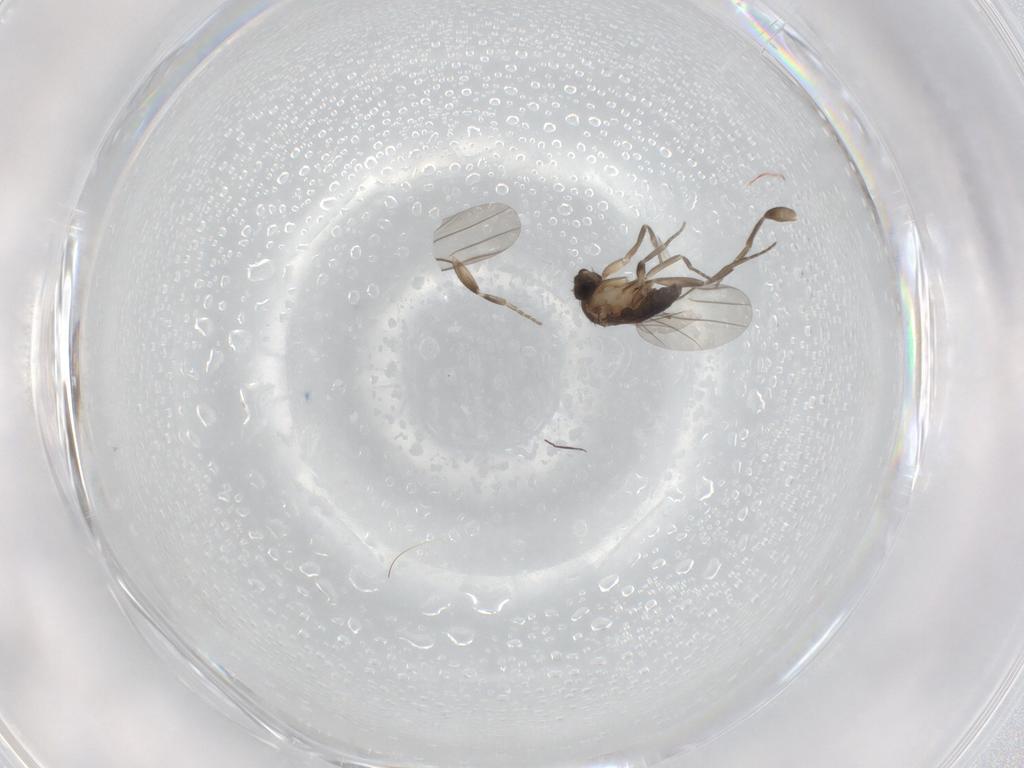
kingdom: Animalia
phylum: Arthropoda
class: Insecta
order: Diptera
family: Phoridae
